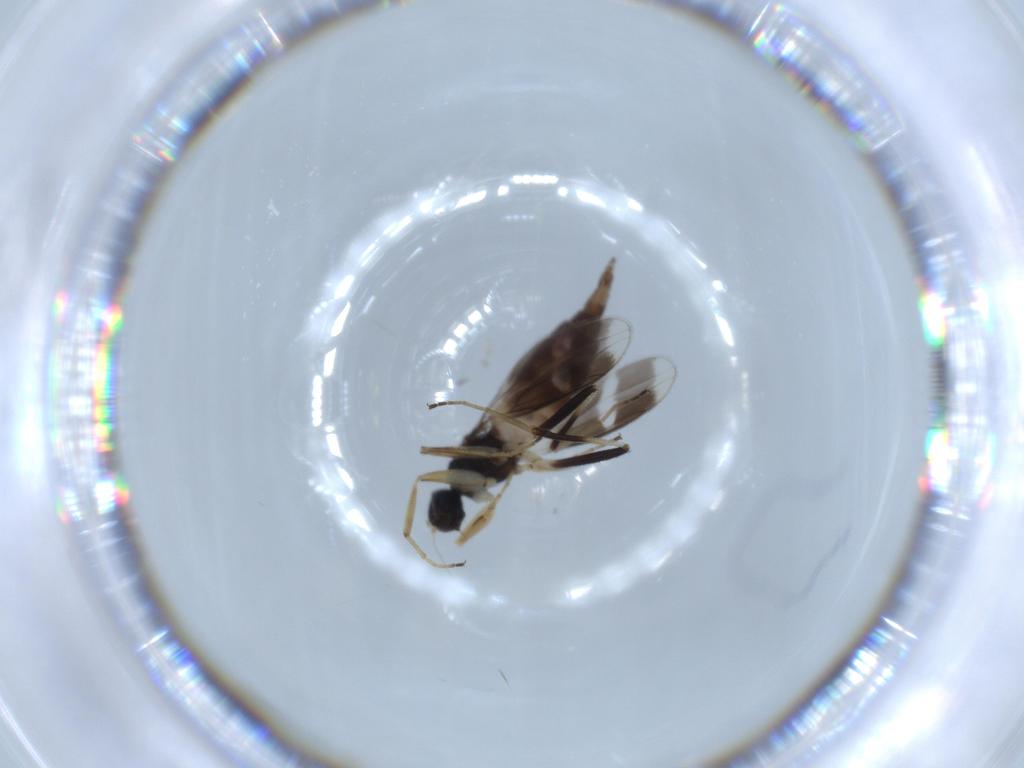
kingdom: Animalia
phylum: Arthropoda
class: Insecta
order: Diptera
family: Hybotidae
